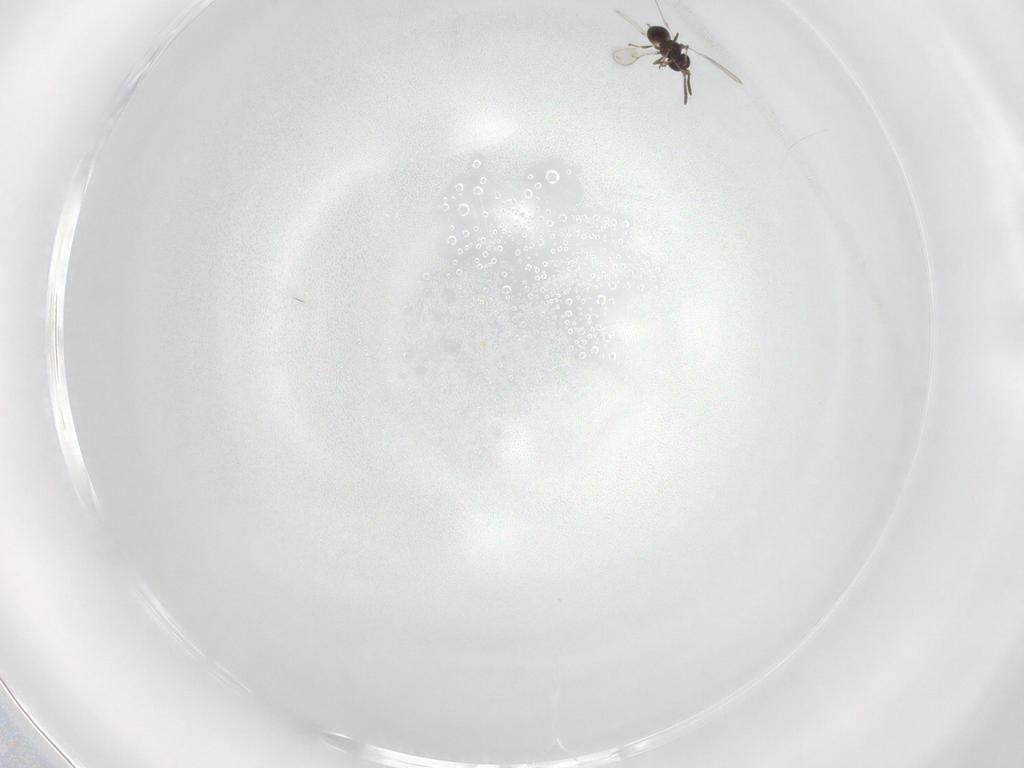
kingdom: Animalia
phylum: Arthropoda
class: Insecta
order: Hymenoptera
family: Scelionidae
